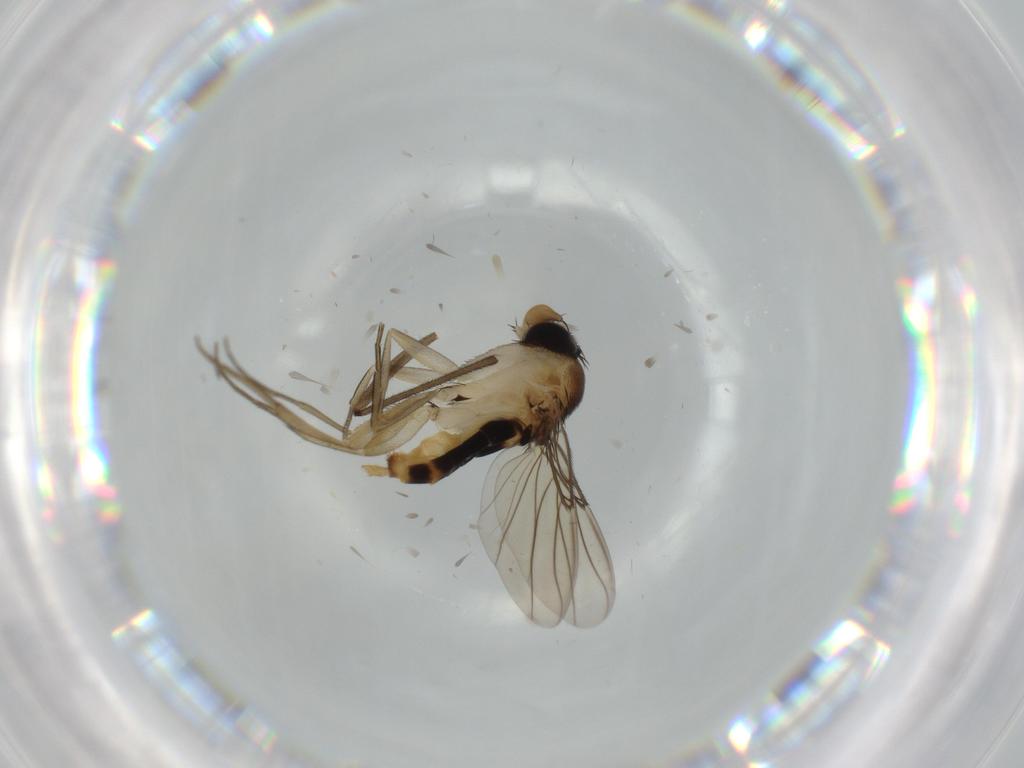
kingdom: Animalia
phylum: Arthropoda
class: Insecta
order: Diptera
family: Phoridae
